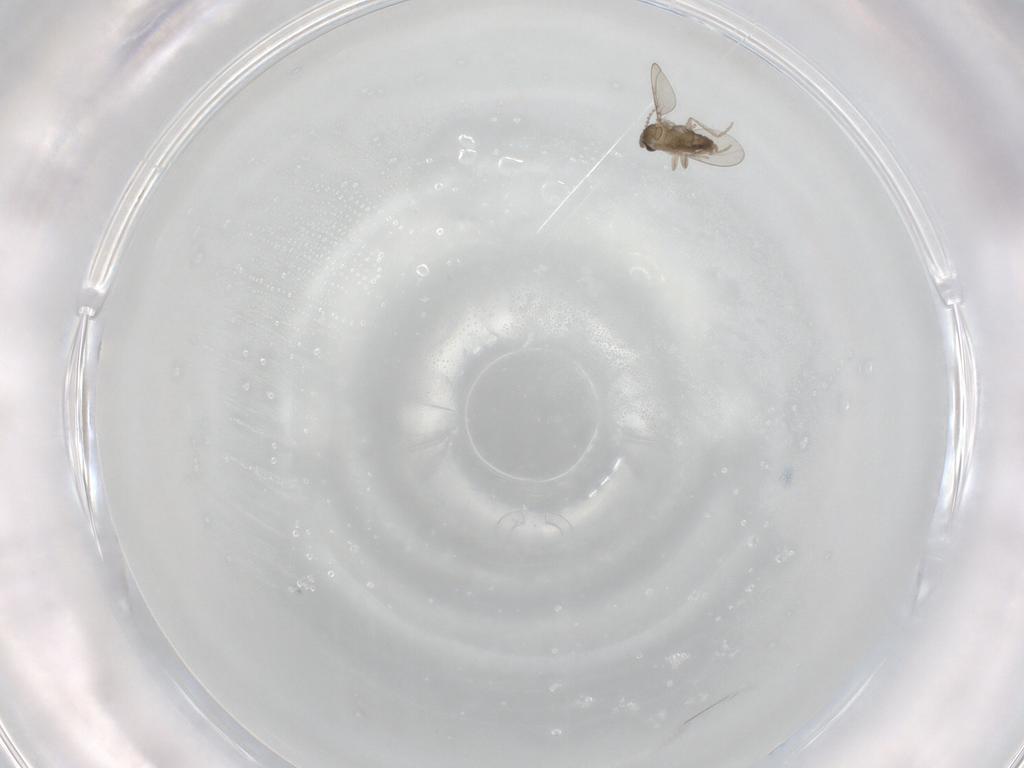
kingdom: Animalia
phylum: Arthropoda
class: Insecta
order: Diptera
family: Cecidomyiidae
